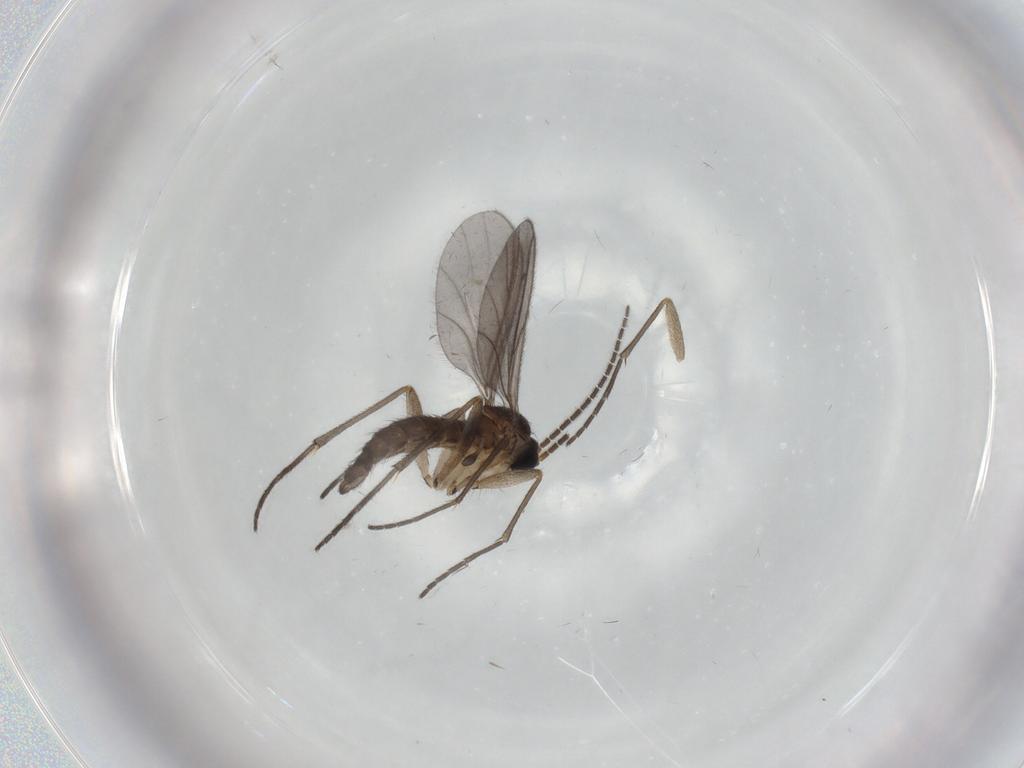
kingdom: Animalia
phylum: Arthropoda
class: Insecta
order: Diptera
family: Sciaridae
